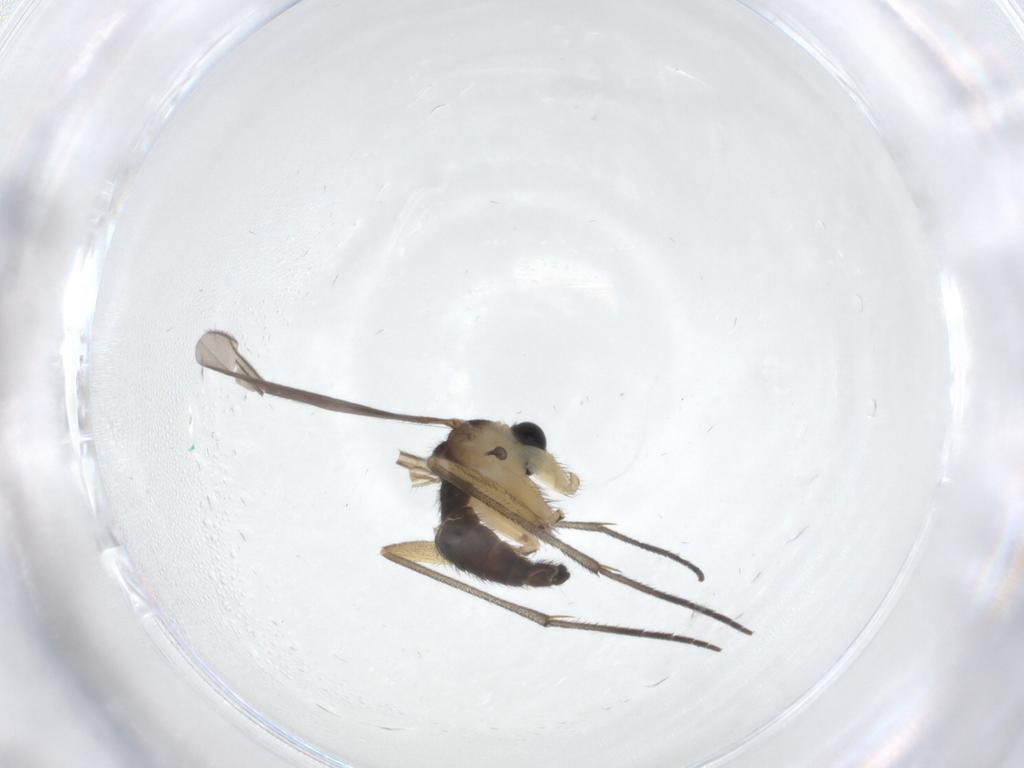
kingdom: Animalia
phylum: Arthropoda
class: Insecta
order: Diptera
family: Sciaridae
